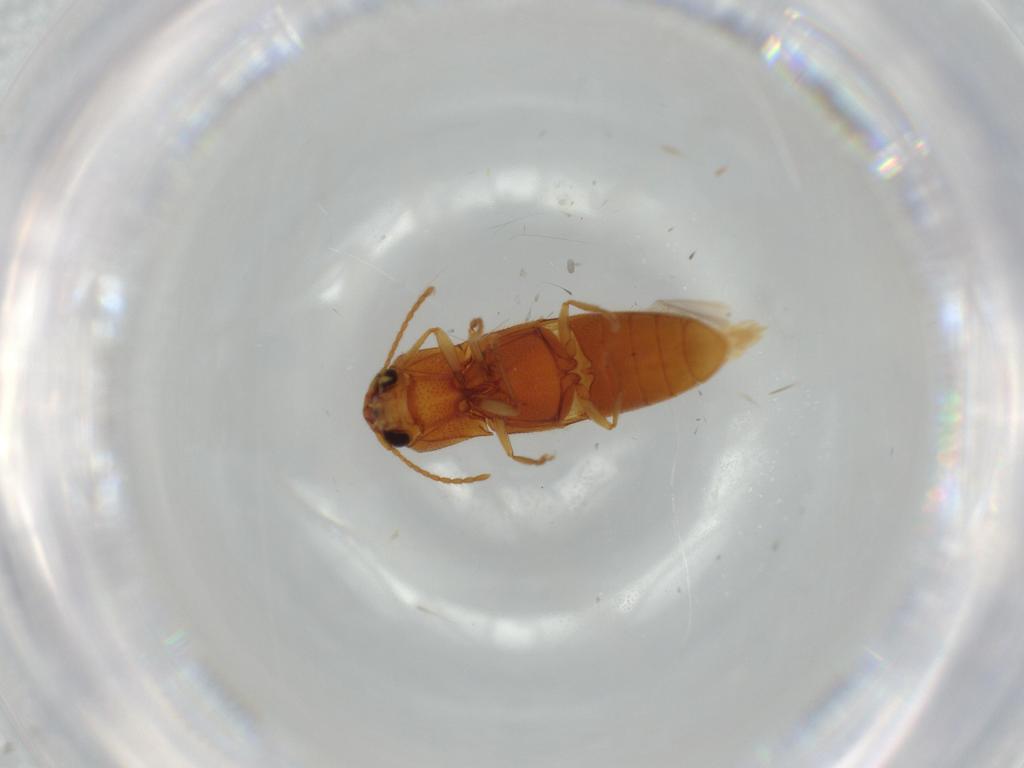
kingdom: Animalia
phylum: Arthropoda
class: Insecta
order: Coleoptera
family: Elateridae
